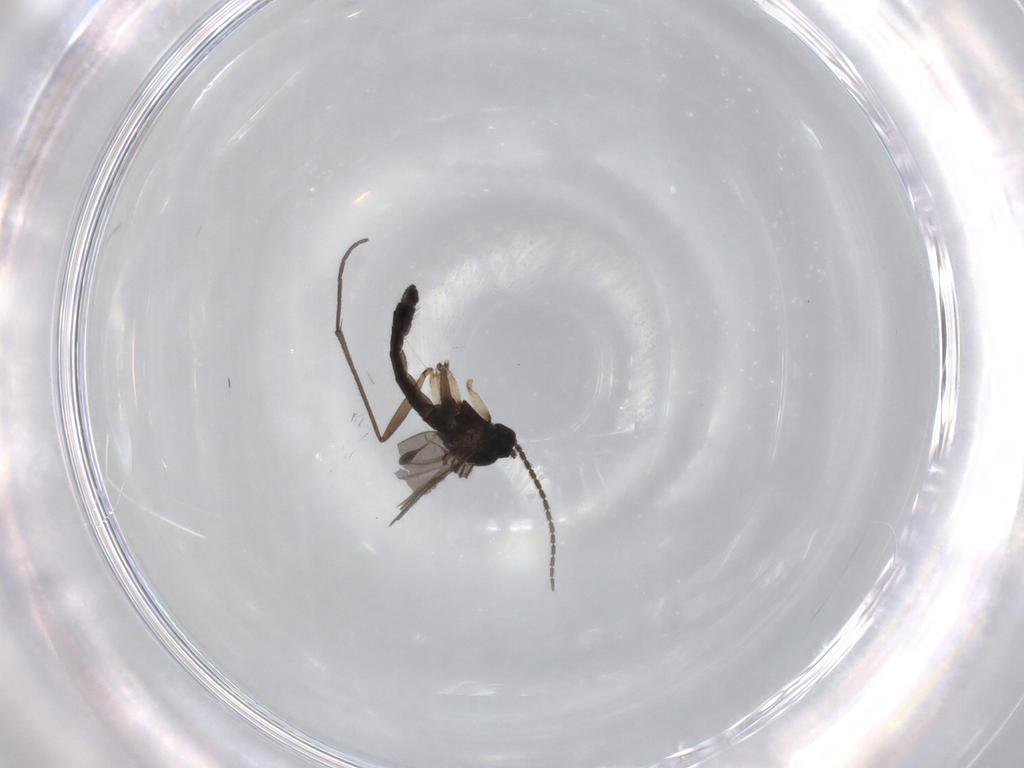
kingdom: Animalia
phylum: Arthropoda
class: Insecta
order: Diptera
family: Sciaridae
